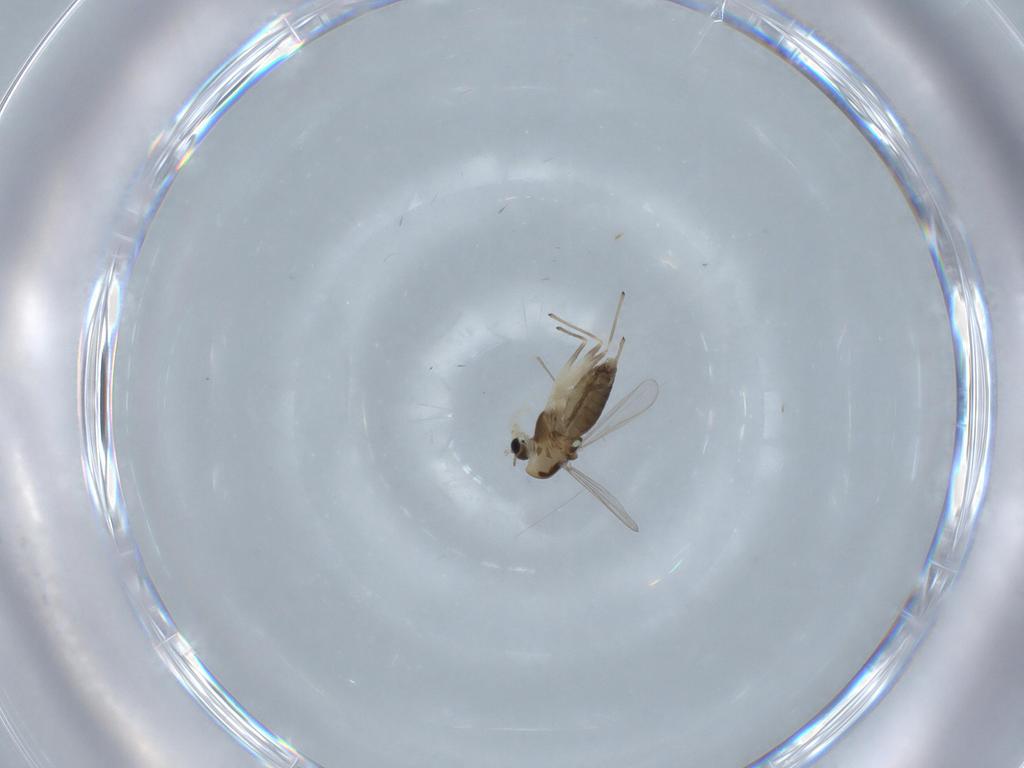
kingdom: Animalia
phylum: Arthropoda
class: Insecta
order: Diptera
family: Chironomidae
